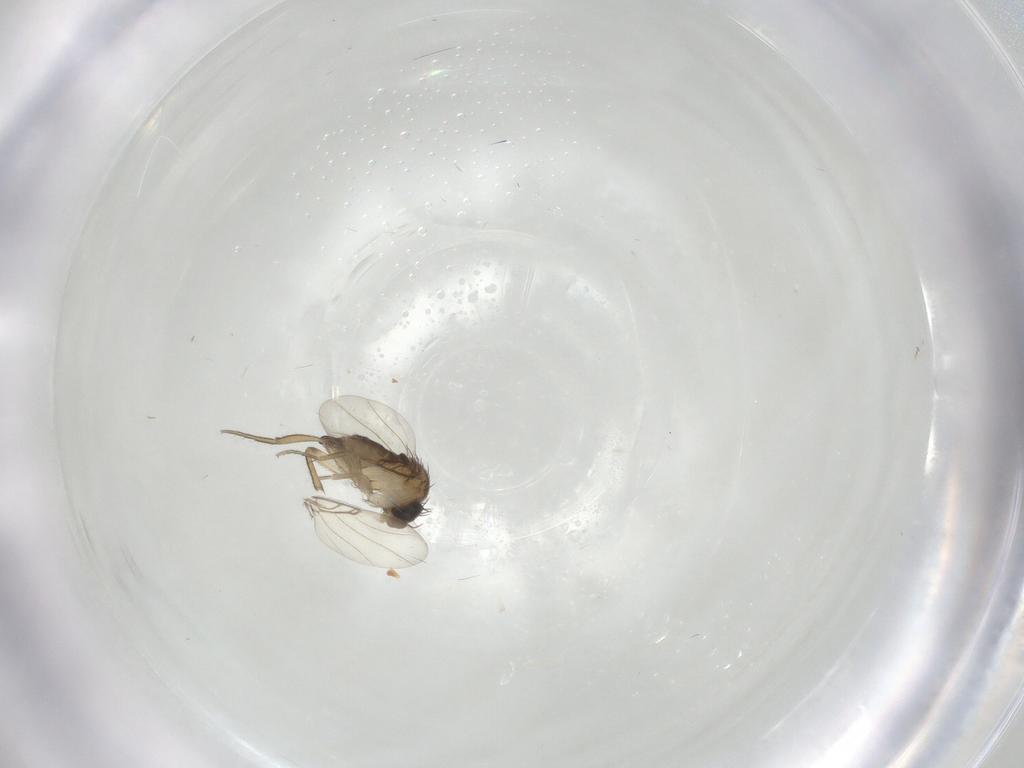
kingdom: Animalia
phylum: Arthropoda
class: Insecta
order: Diptera
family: Phoridae
